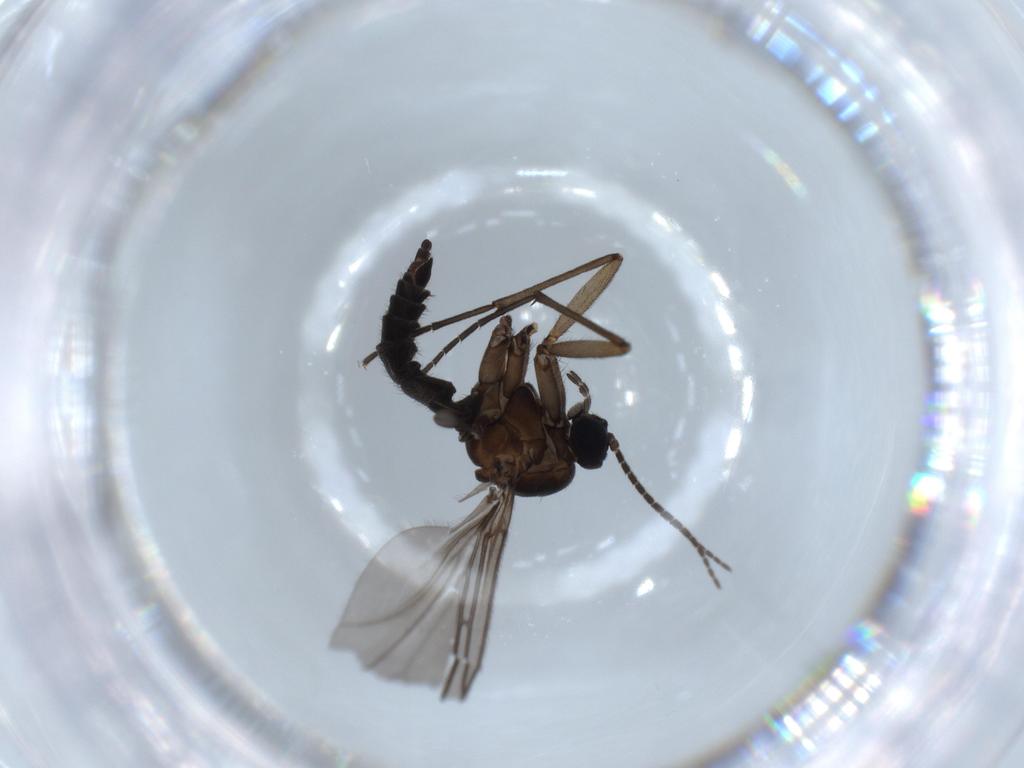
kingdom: Animalia
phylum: Arthropoda
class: Insecta
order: Diptera
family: Sciaridae
